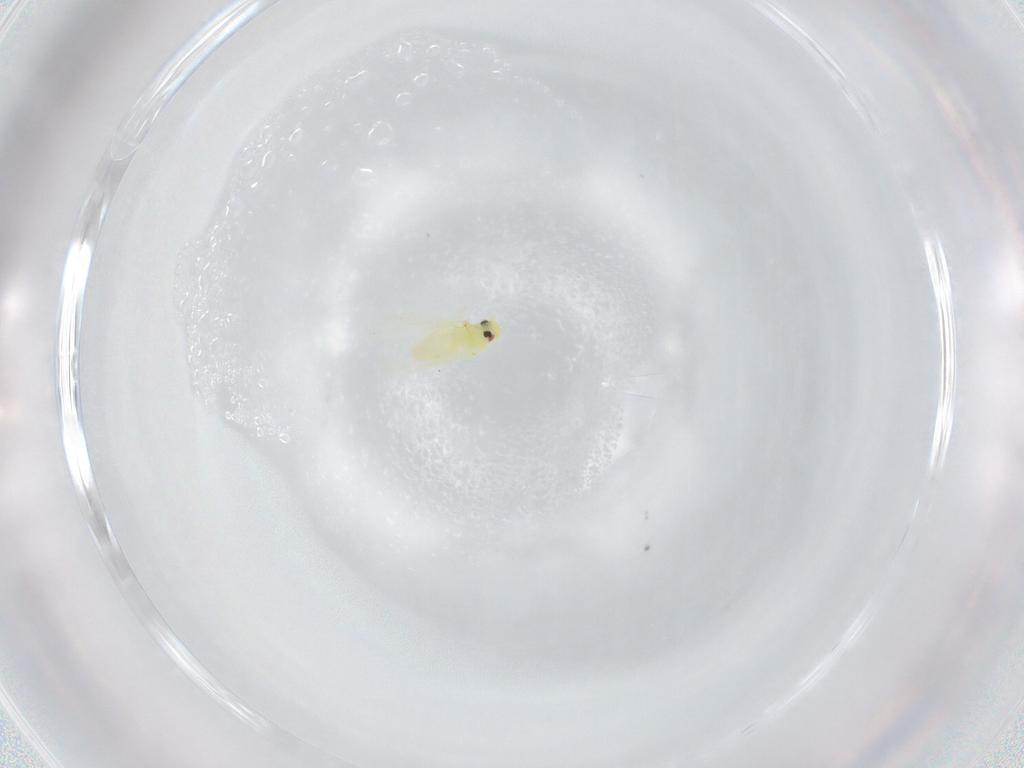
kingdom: Animalia
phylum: Arthropoda
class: Insecta
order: Hemiptera
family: Aleyrodidae
